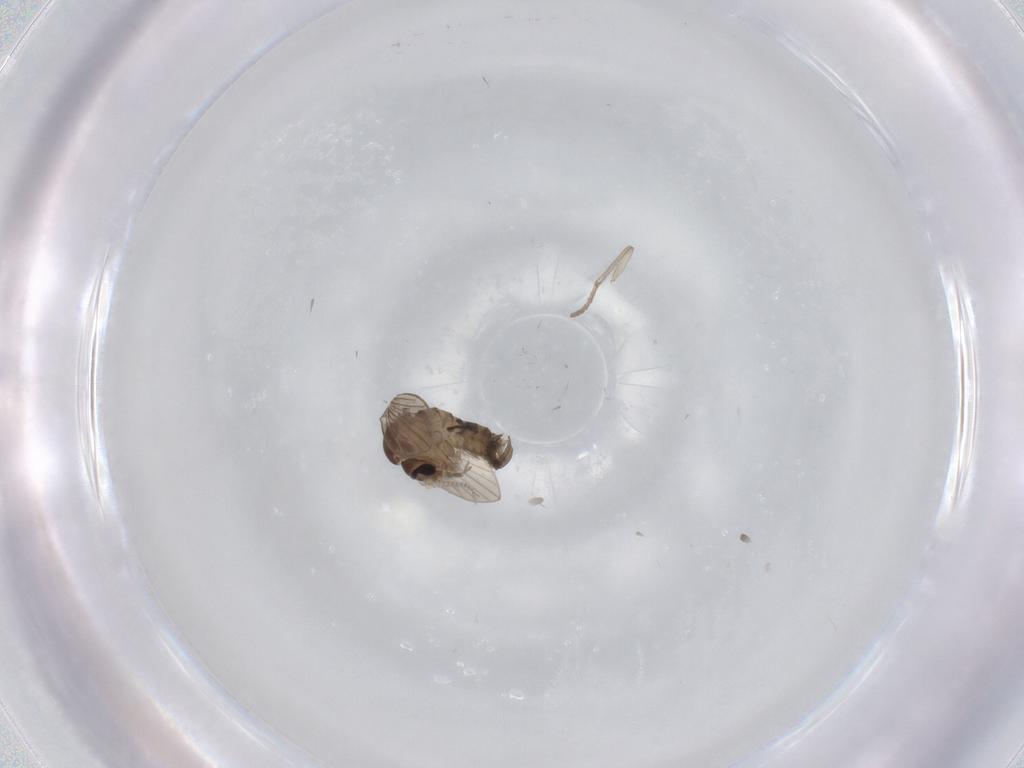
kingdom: Animalia
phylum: Arthropoda
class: Insecta
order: Diptera
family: Psychodidae
